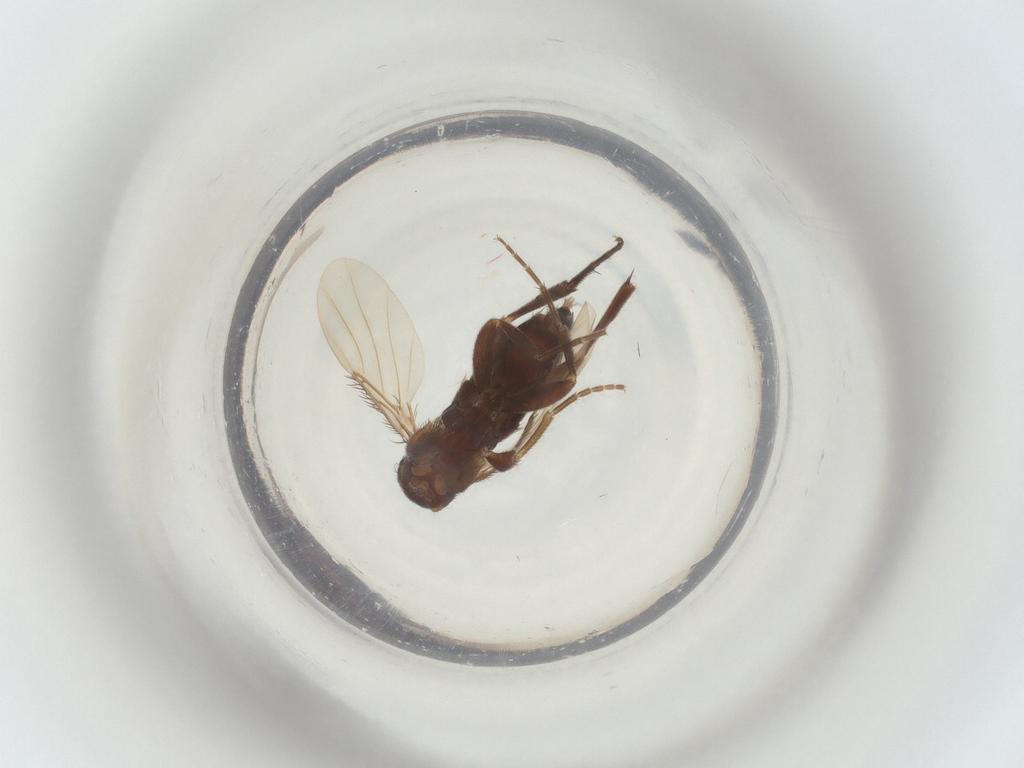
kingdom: Animalia
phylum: Arthropoda
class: Insecta
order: Diptera
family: Phoridae
